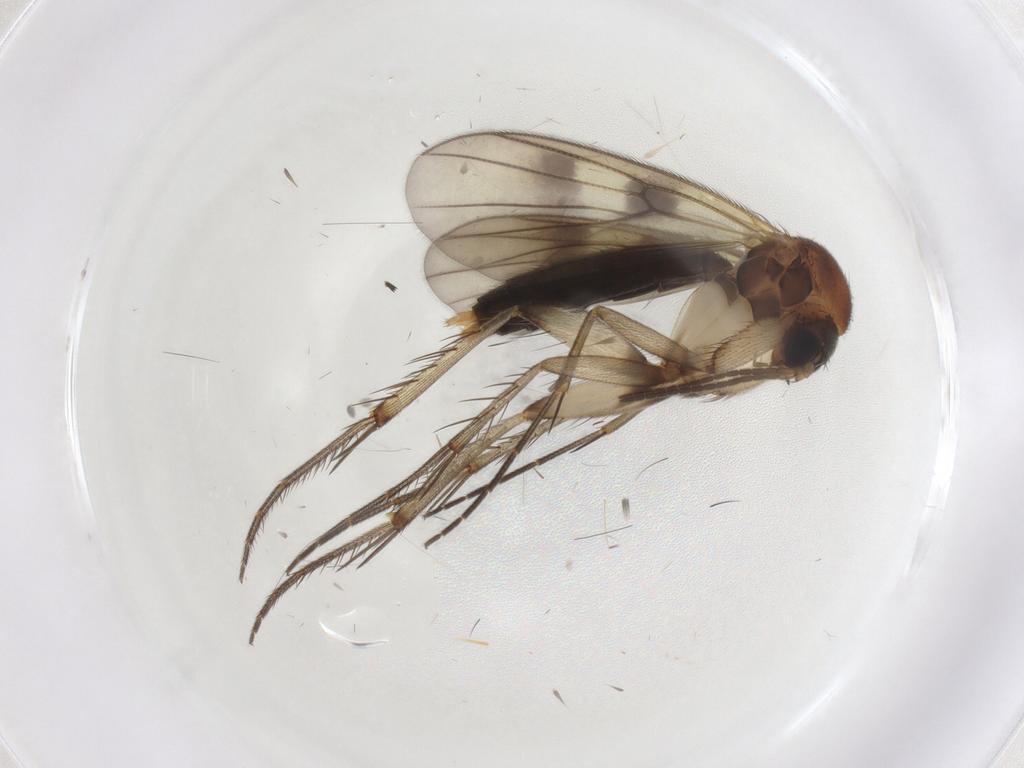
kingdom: Animalia
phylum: Arthropoda
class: Insecta
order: Diptera
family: Mycetophilidae
